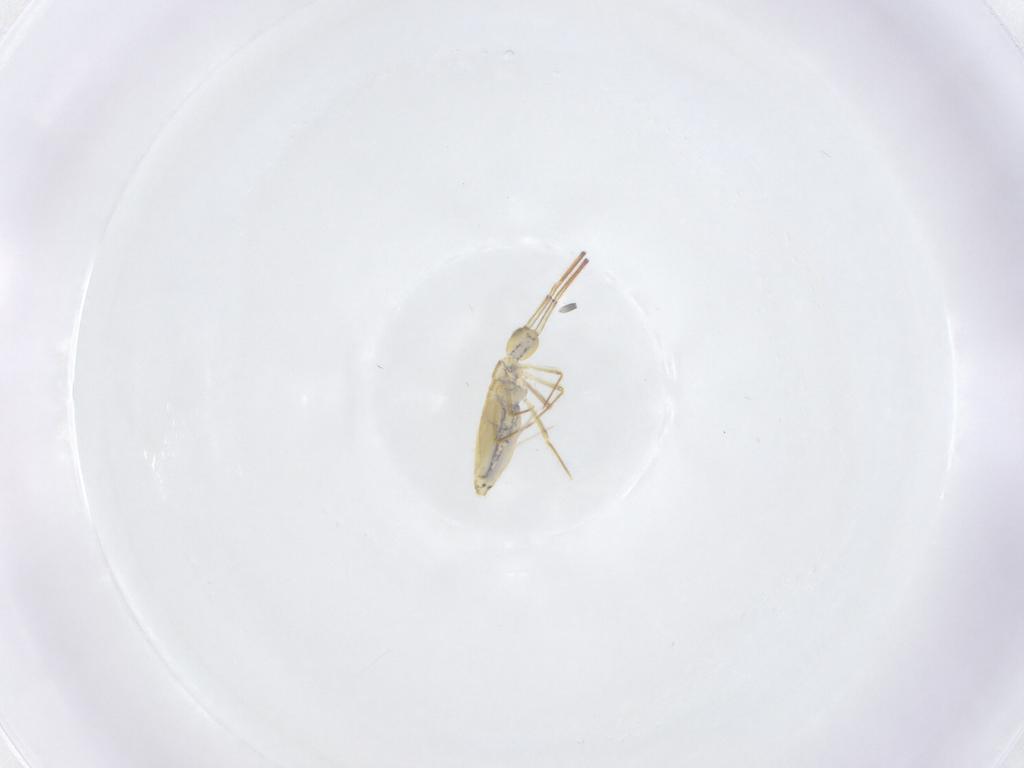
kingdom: Animalia
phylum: Arthropoda
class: Collembola
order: Entomobryomorpha
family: Entomobryidae
